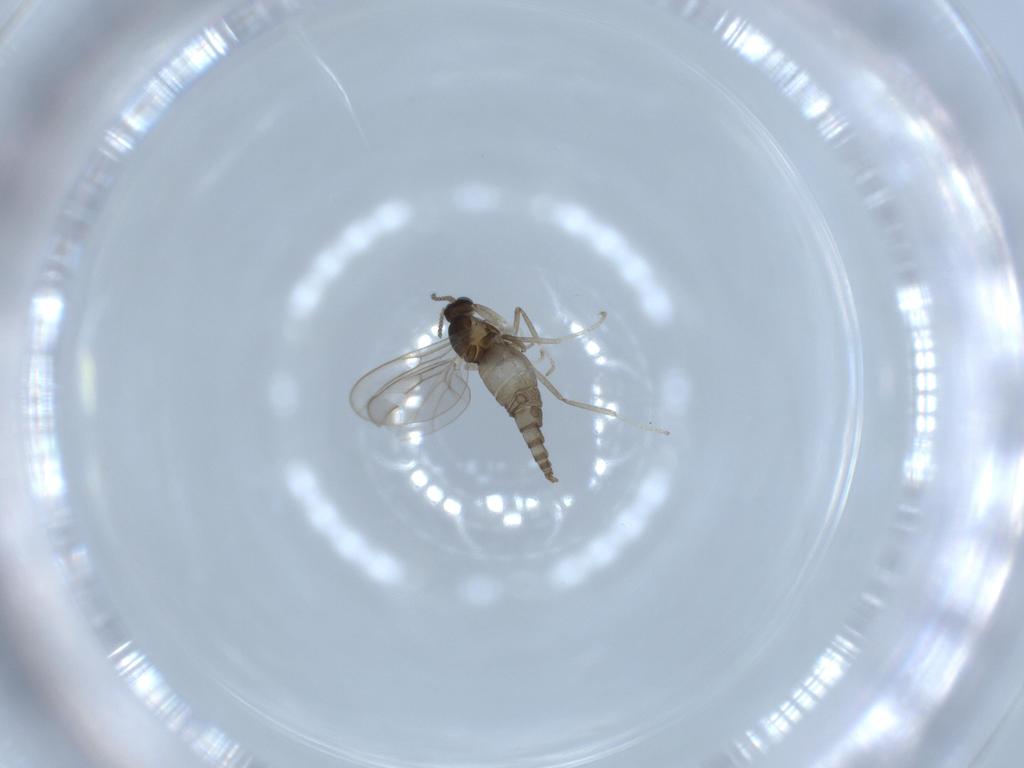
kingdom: Animalia
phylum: Arthropoda
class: Insecta
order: Diptera
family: Cecidomyiidae
